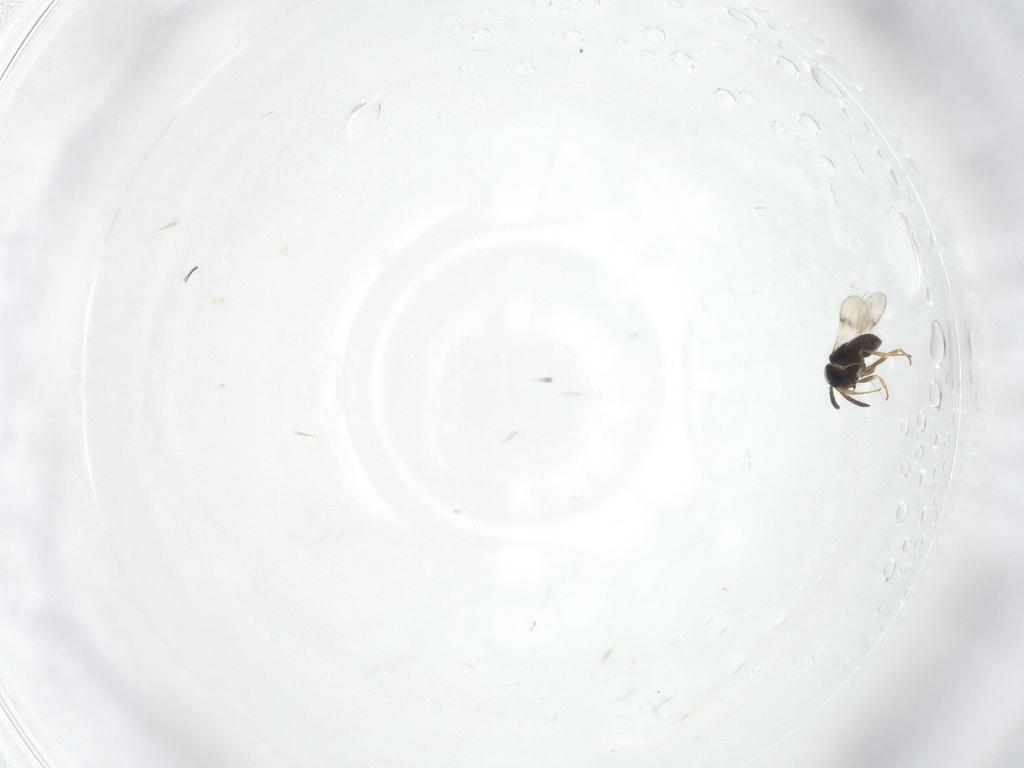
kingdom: Animalia
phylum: Arthropoda
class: Insecta
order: Hymenoptera
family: Scelionidae
